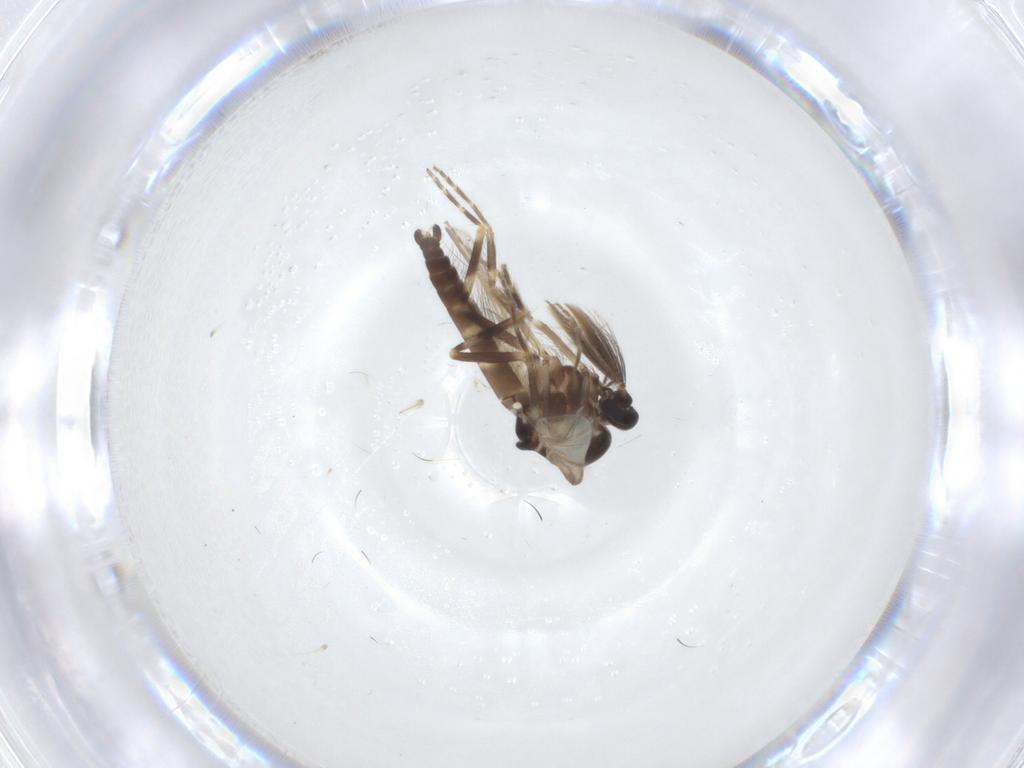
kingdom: Animalia
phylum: Arthropoda
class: Insecta
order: Diptera
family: Ceratopogonidae
